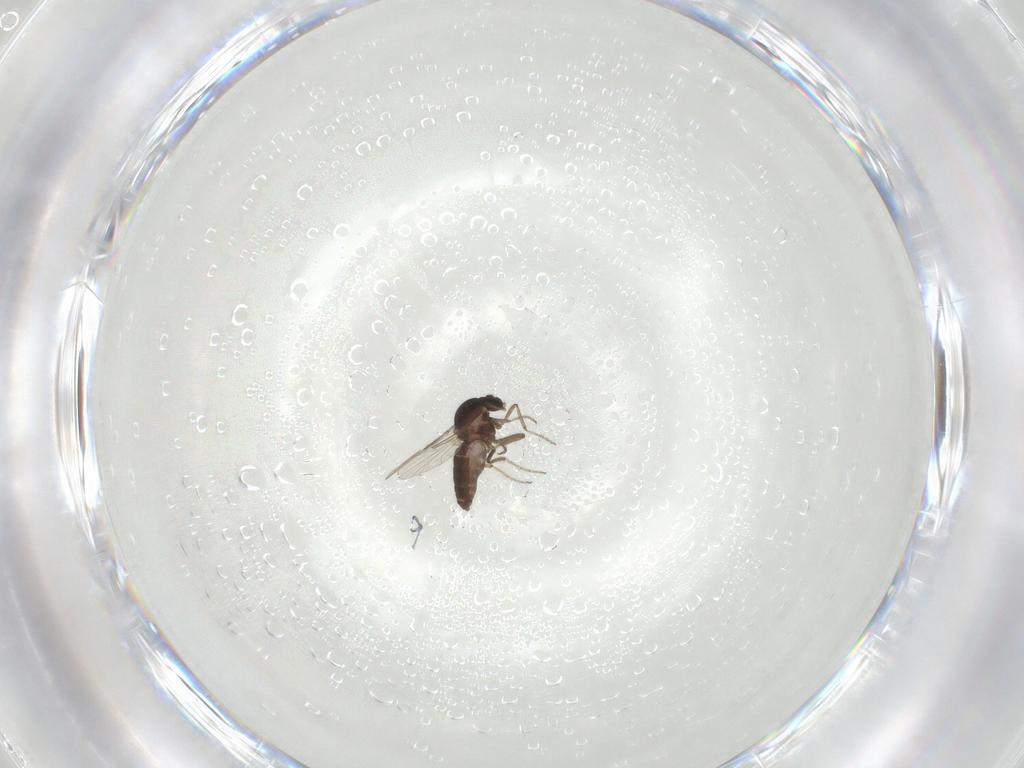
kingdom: Animalia
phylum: Arthropoda
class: Insecta
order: Diptera
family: Ceratopogonidae
